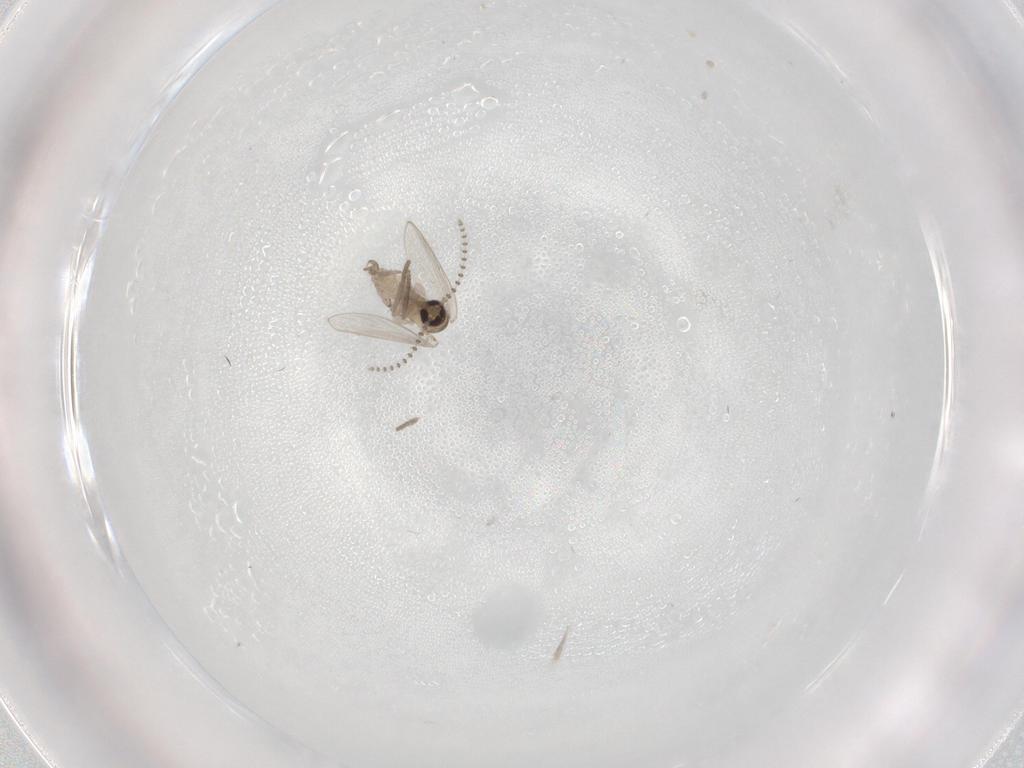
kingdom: Animalia
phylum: Arthropoda
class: Insecta
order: Diptera
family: Psychodidae
